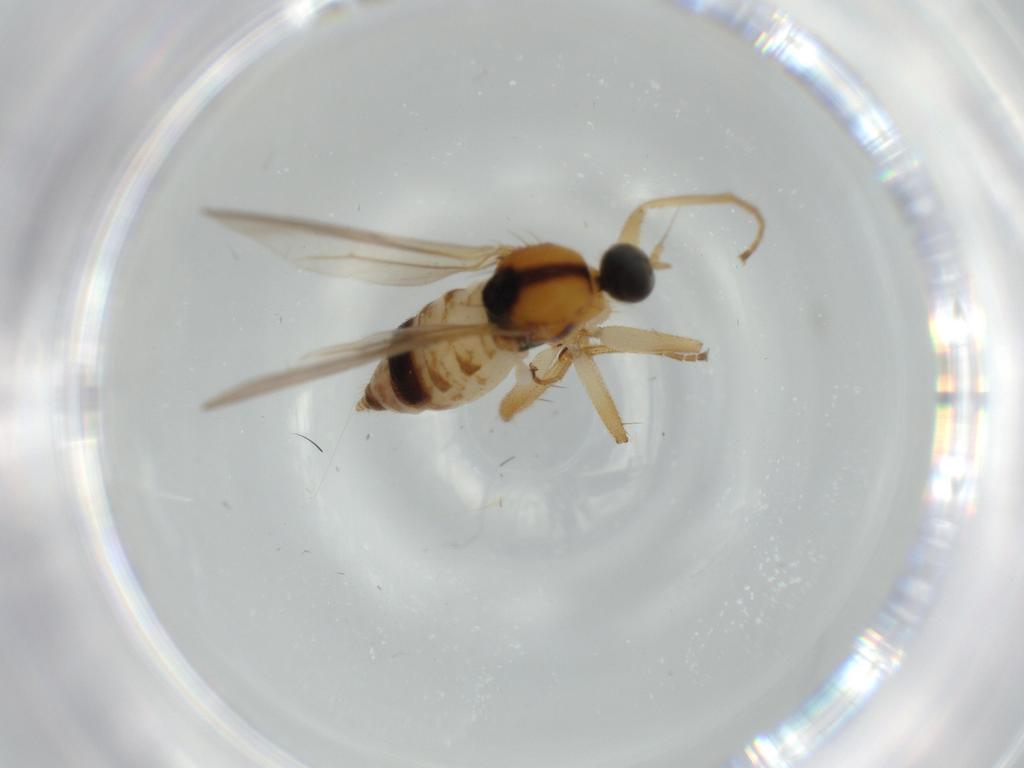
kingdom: Animalia
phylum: Arthropoda
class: Insecta
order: Diptera
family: Hybotidae
